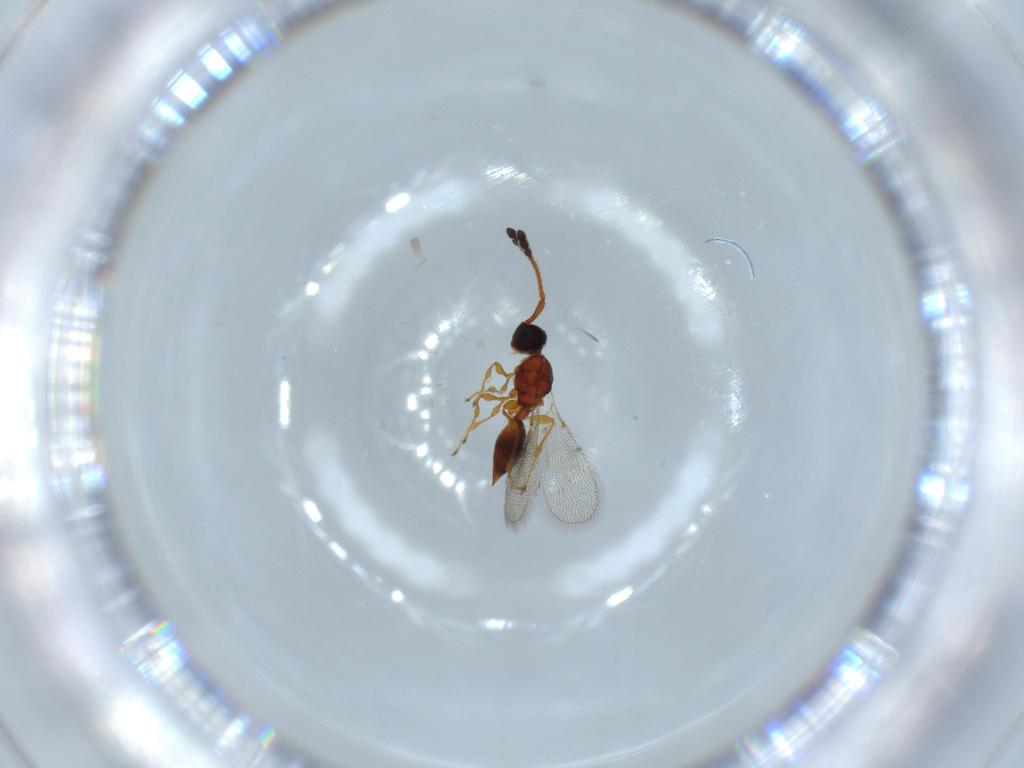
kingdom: Animalia
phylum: Arthropoda
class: Insecta
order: Hymenoptera
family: Diapriidae
